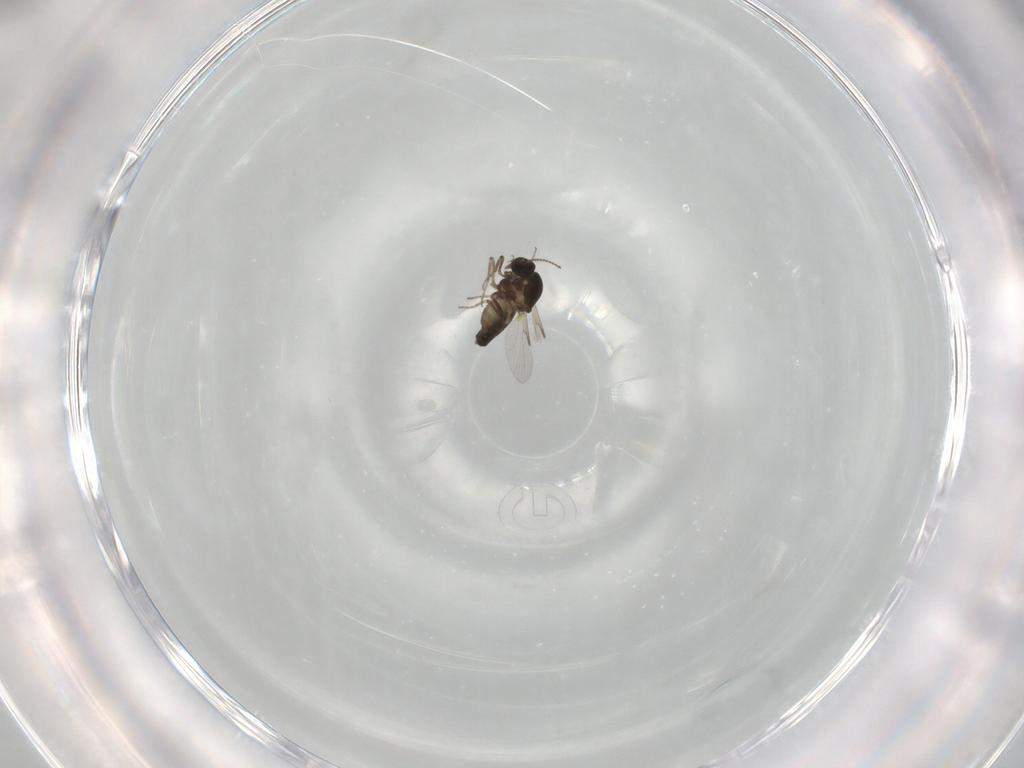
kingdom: Animalia
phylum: Arthropoda
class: Insecta
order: Diptera
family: Ceratopogonidae
